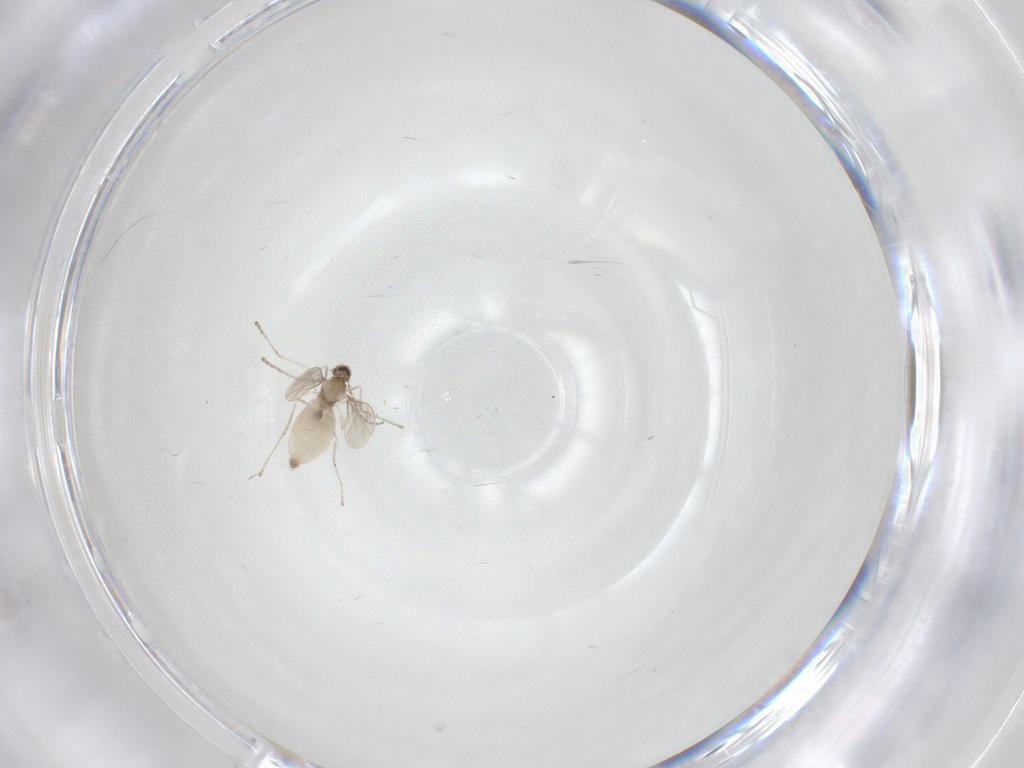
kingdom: Animalia
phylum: Arthropoda
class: Insecta
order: Diptera
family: Cecidomyiidae
